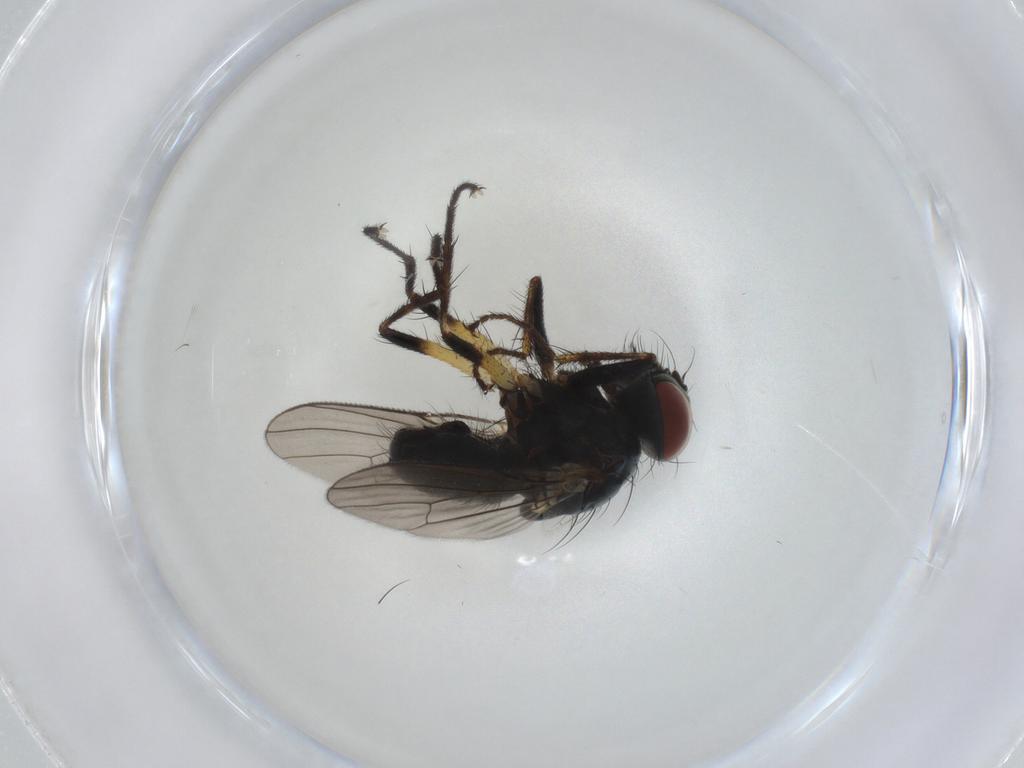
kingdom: Animalia
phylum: Arthropoda
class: Insecta
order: Diptera
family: Muscidae
